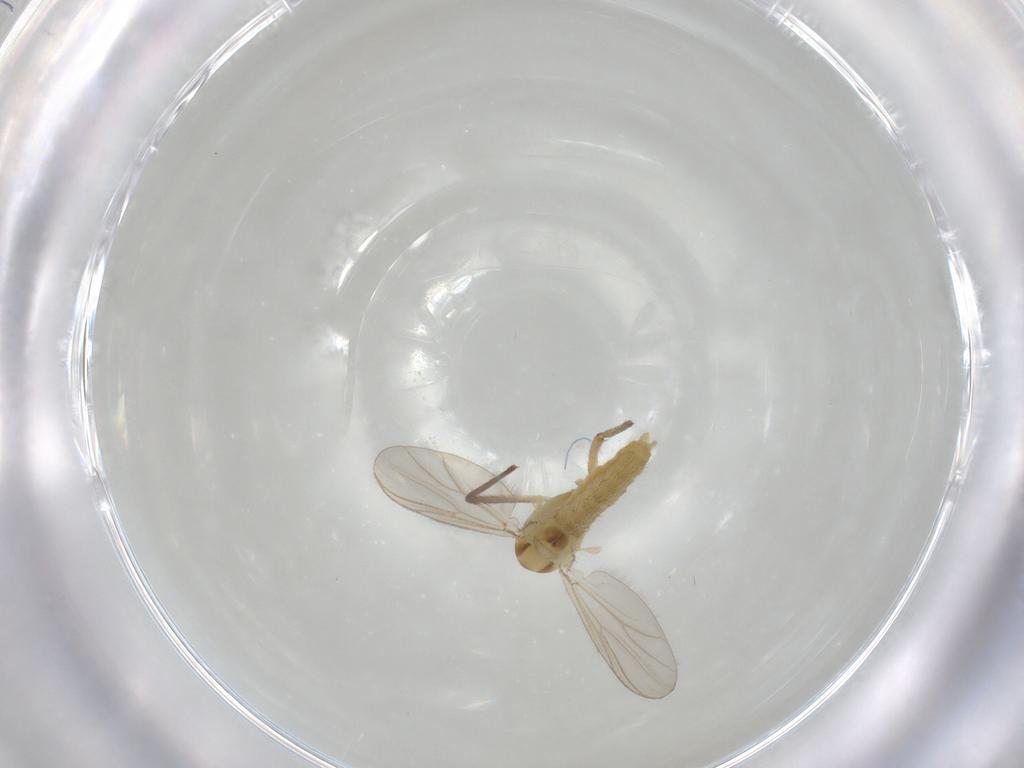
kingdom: Animalia
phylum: Arthropoda
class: Insecta
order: Diptera
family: Chironomidae
